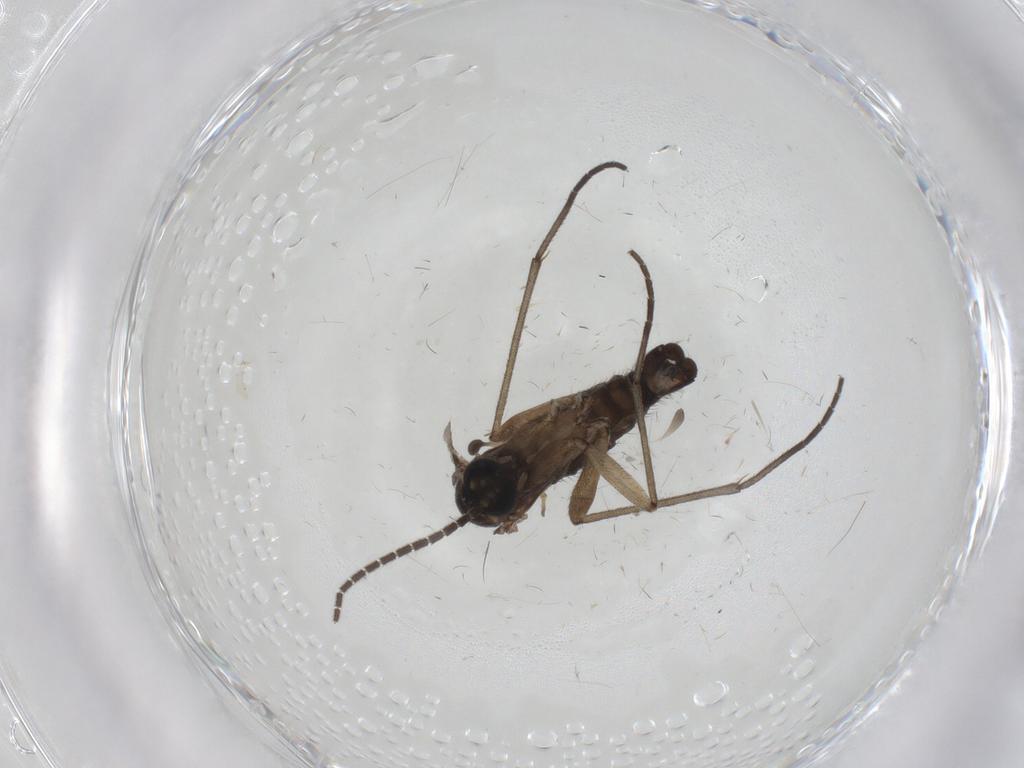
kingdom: Animalia
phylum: Arthropoda
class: Insecta
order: Diptera
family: Sciaridae
